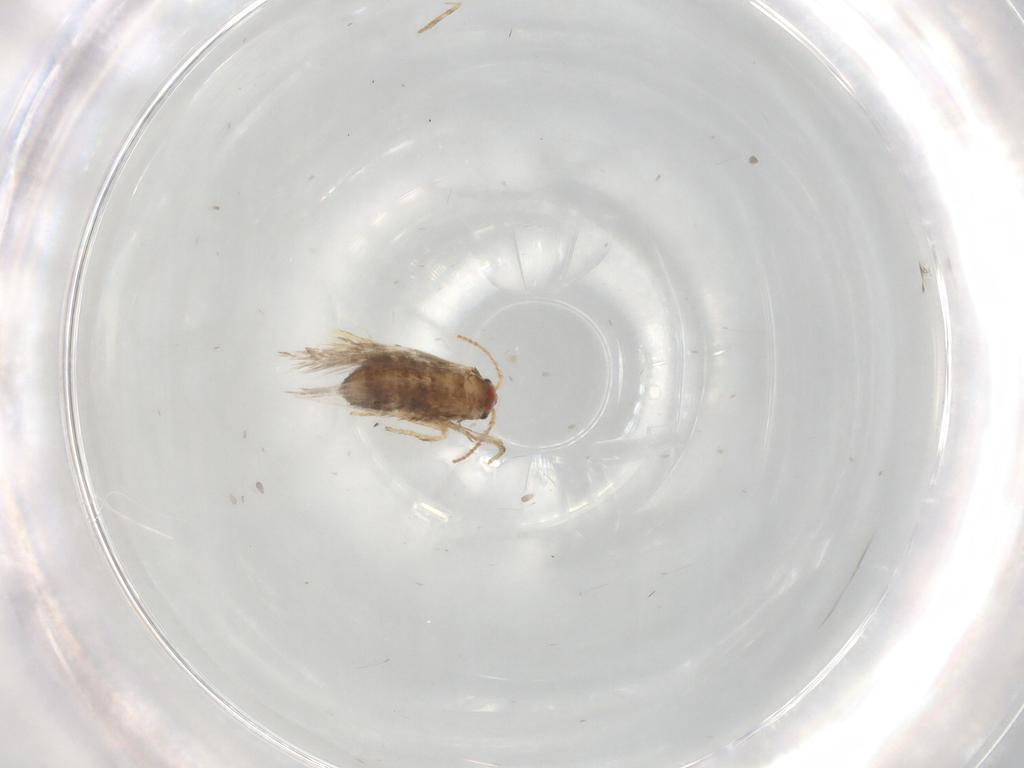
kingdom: Animalia
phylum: Arthropoda
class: Insecta
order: Lepidoptera
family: Nepticulidae
